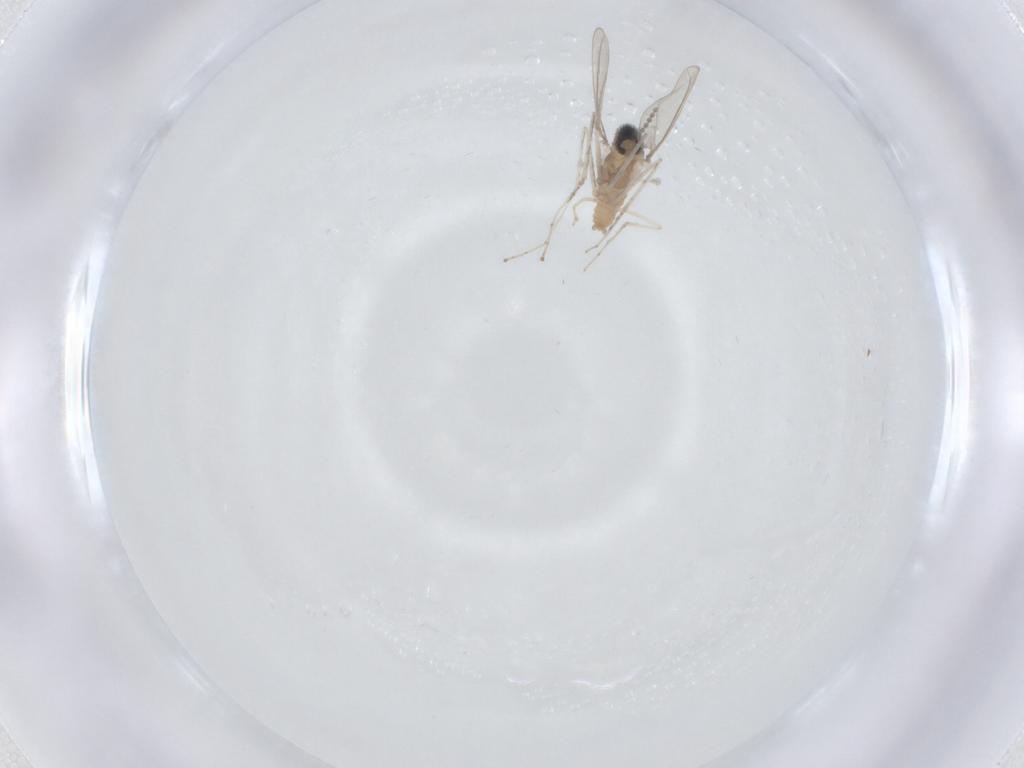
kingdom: Animalia
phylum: Arthropoda
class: Insecta
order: Diptera
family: Cecidomyiidae
